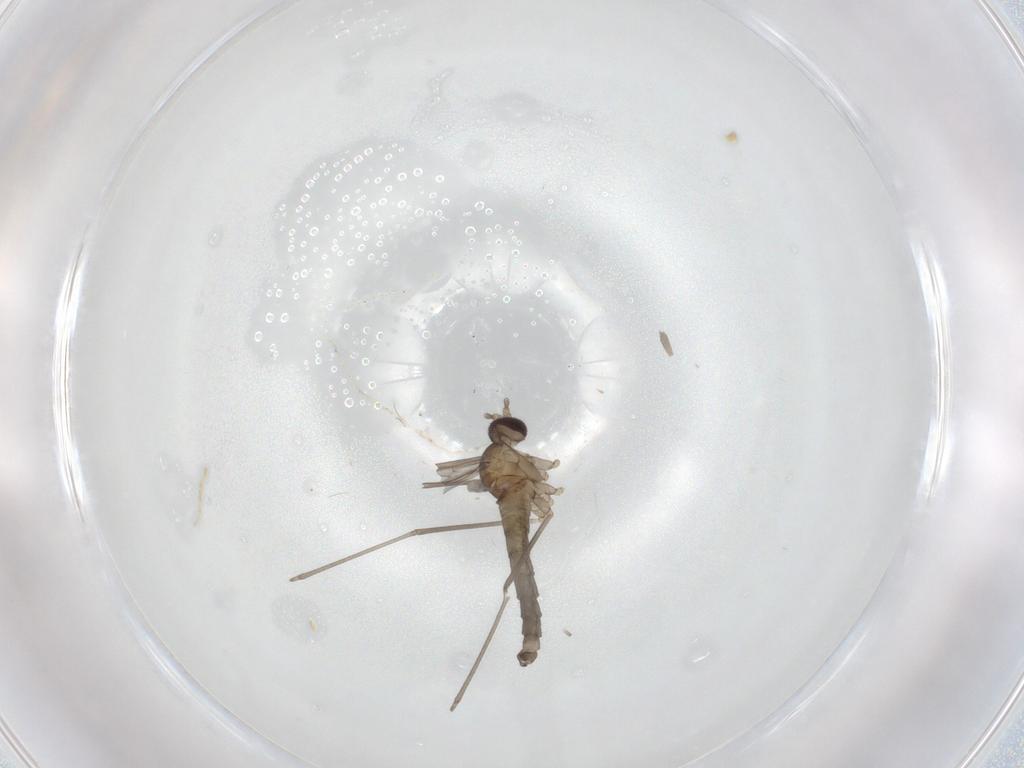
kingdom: Animalia
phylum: Arthropoda
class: Insecta
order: Diptera
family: Cecidomyiidae
